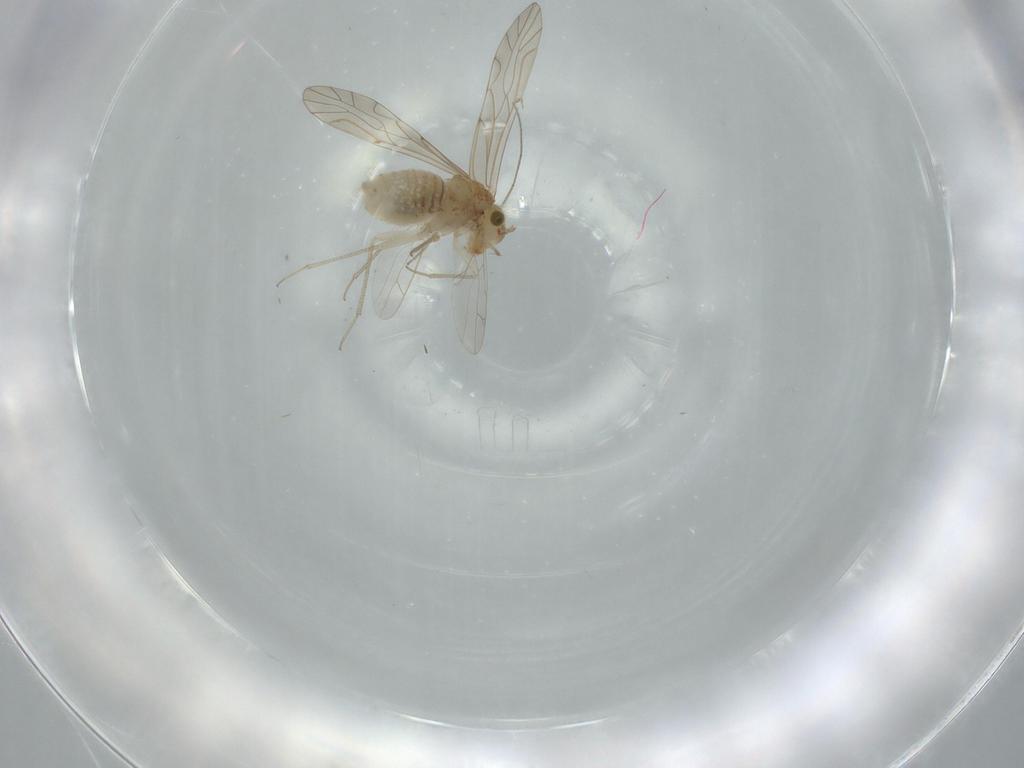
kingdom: Animalia
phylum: Arthropoda
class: Insecta
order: Psocodea
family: Lachesillidae
